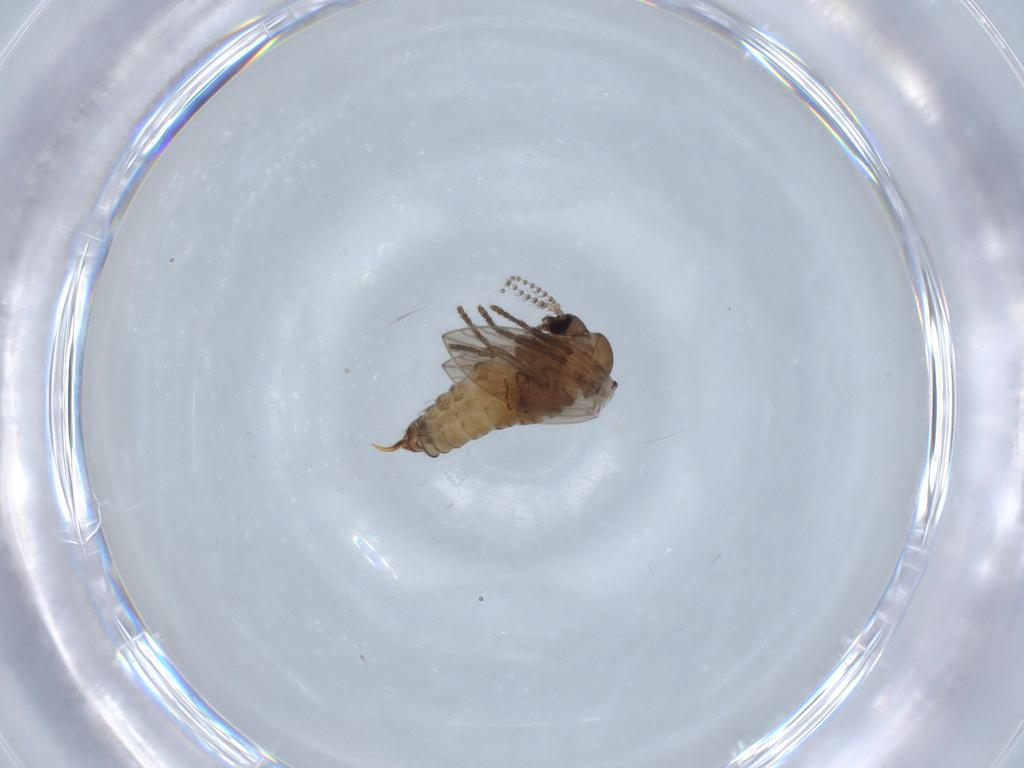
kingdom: Animalia
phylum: Arthropoda
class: Insecta
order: Diptera
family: Psychodidae
